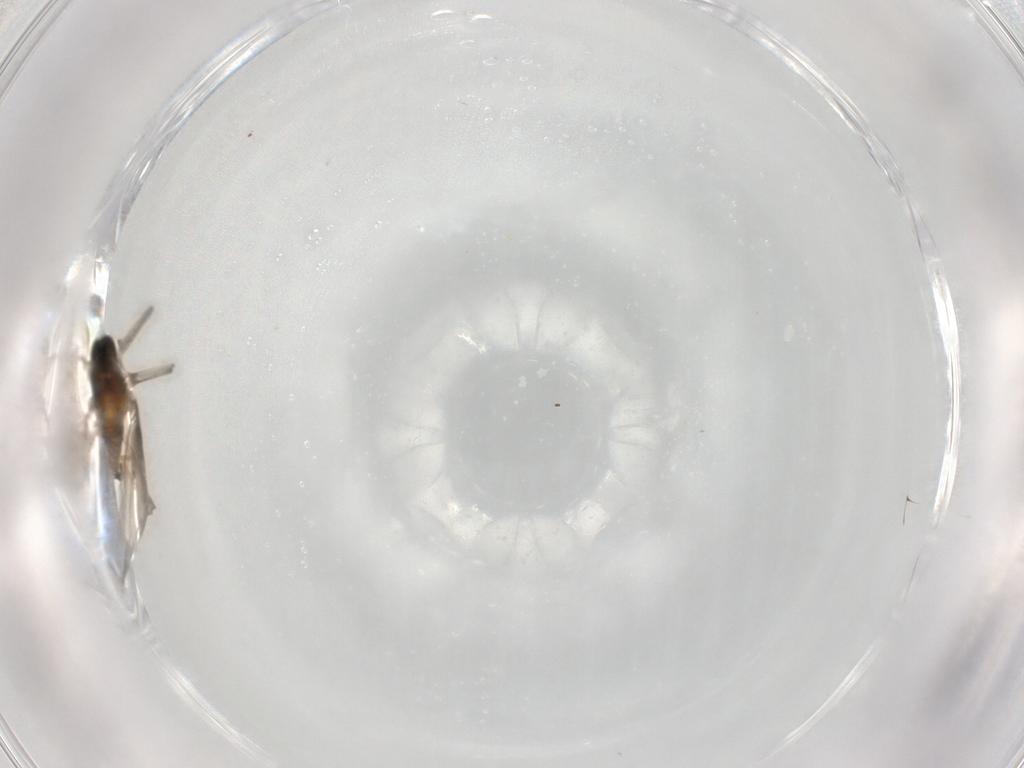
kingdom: Animalia
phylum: Arthropoda
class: Insecta
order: Diptera
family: Cecidomyiidae
